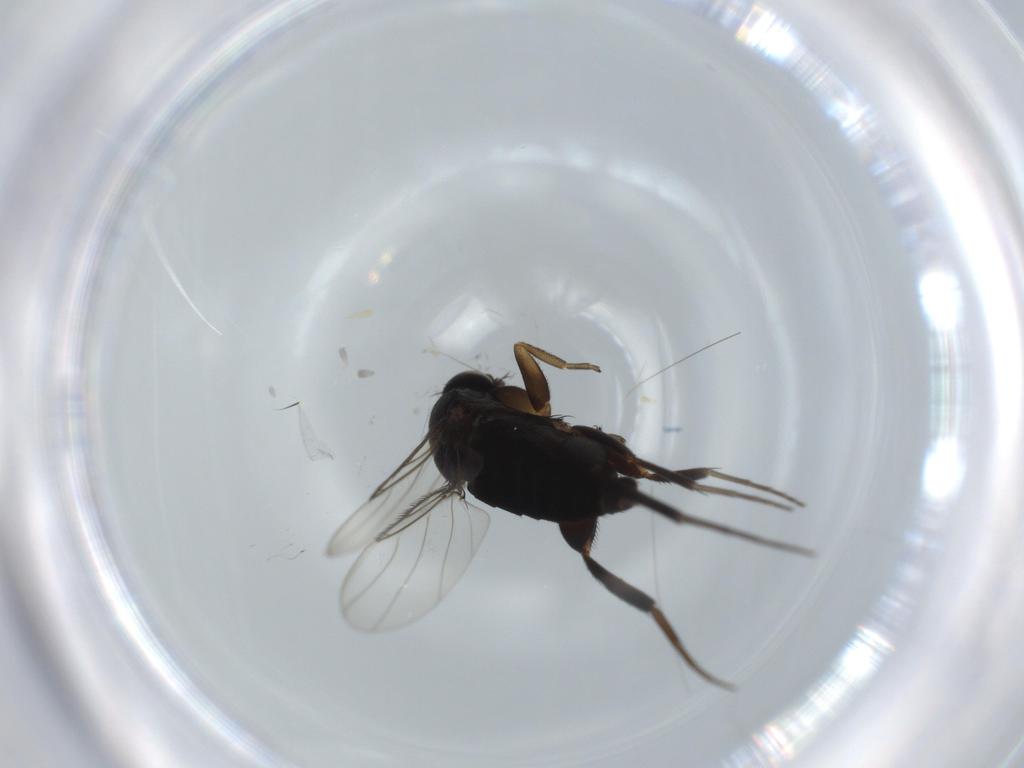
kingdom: Animalia
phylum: Arthropoda
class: Insecta
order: Diptera
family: Phoridae
